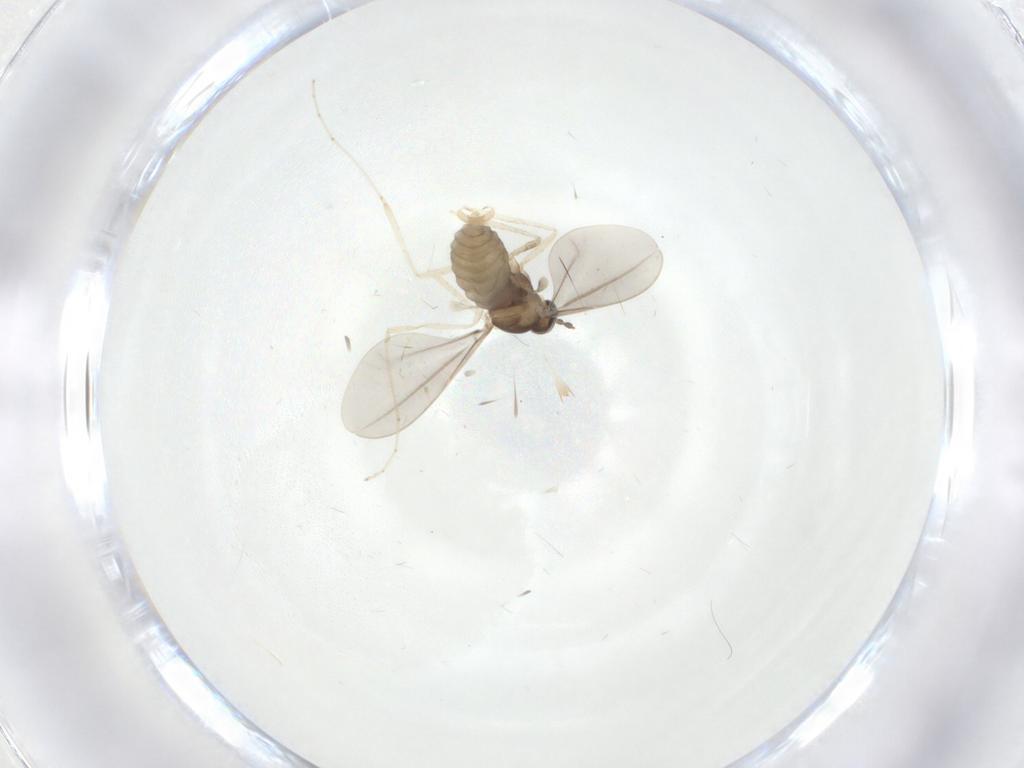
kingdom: Animalia
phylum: Arthropoda
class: Insecta
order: Diptera
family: Cecidomyiidae
